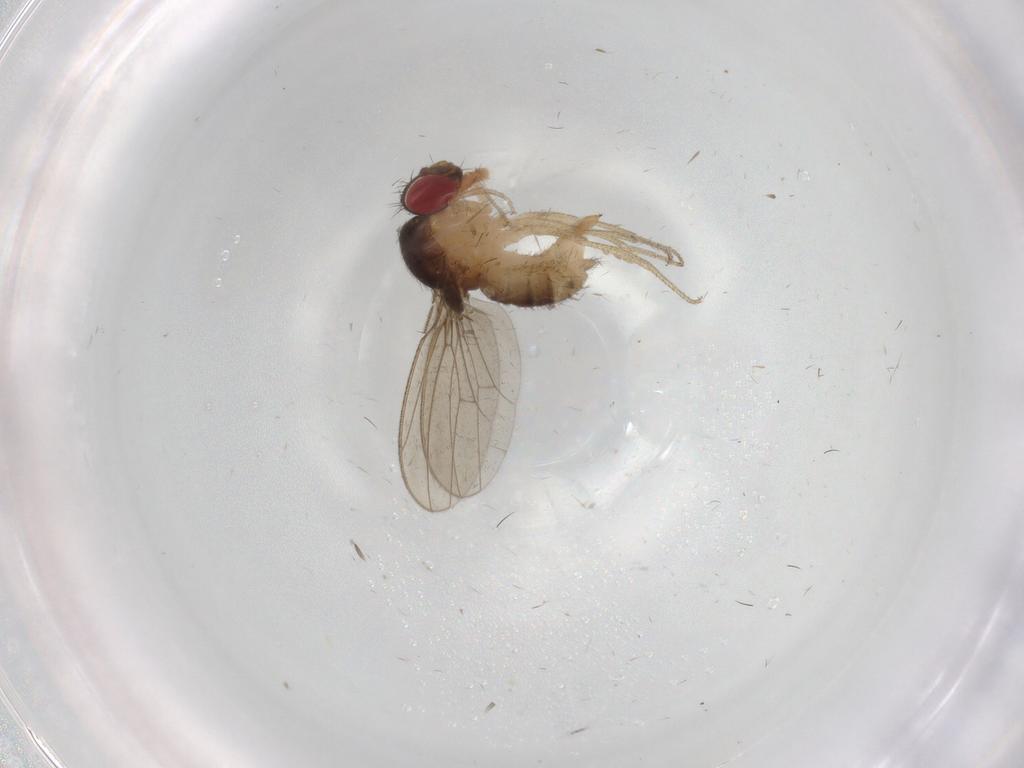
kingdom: Animalia
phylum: Arthropoda
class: Insecta
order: Diptera
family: Drosophilidae
